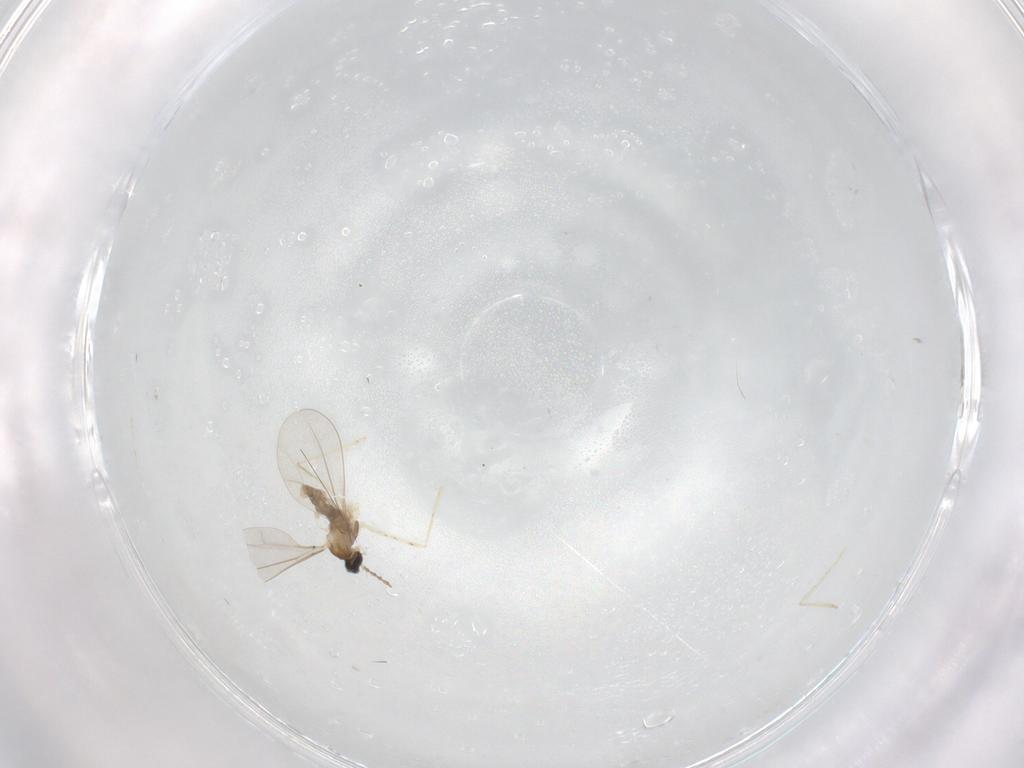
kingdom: Animalia
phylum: Arthropoda
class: Insecta
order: Diptera
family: Cecidomyiidae
